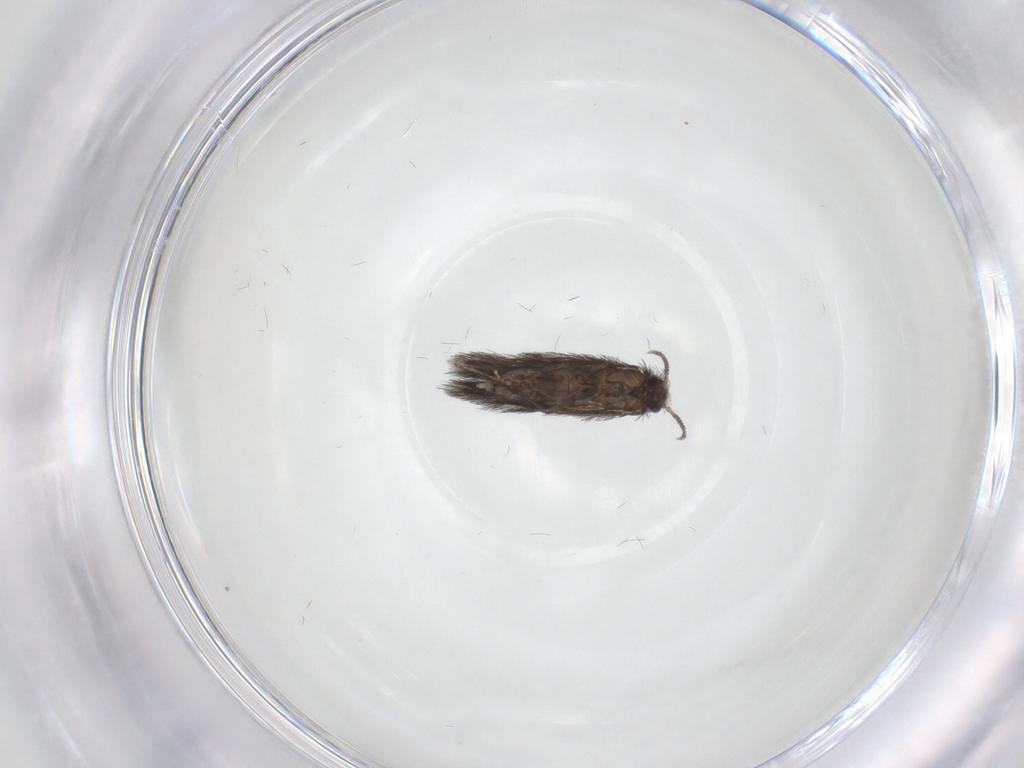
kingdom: Animalia
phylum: Arthropoda
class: Insecta
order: Trichoptera
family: Hydroptilidae
